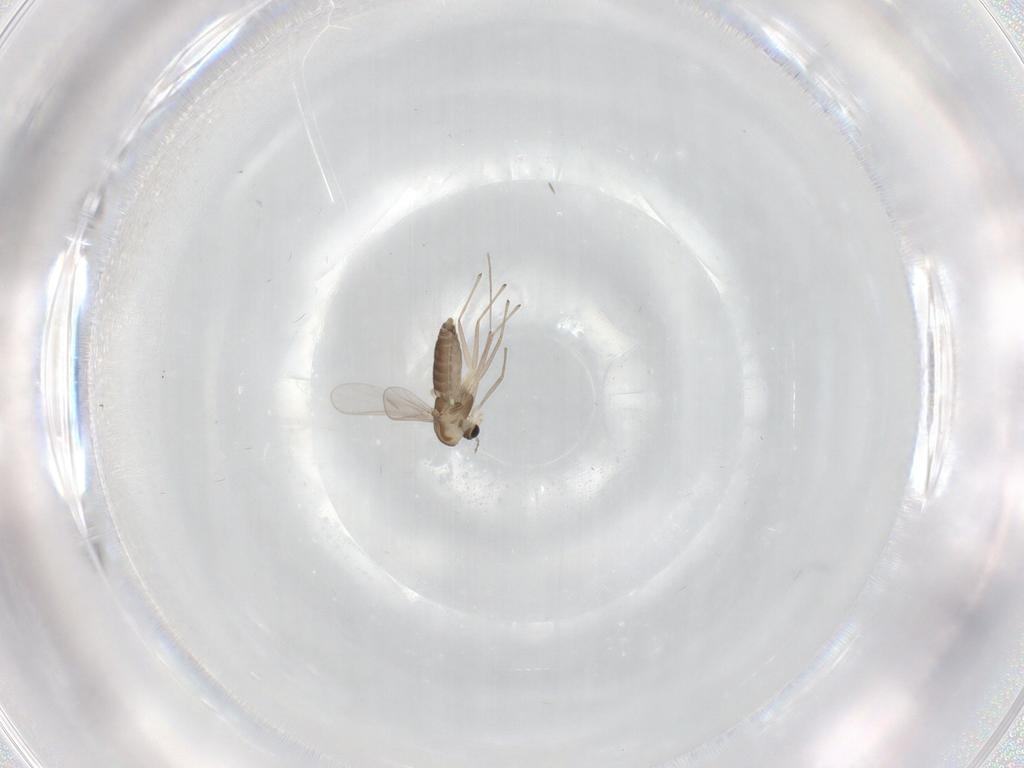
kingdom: Animalia
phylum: Arthropoda
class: Insecta
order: Diptera
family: Chironomidae
